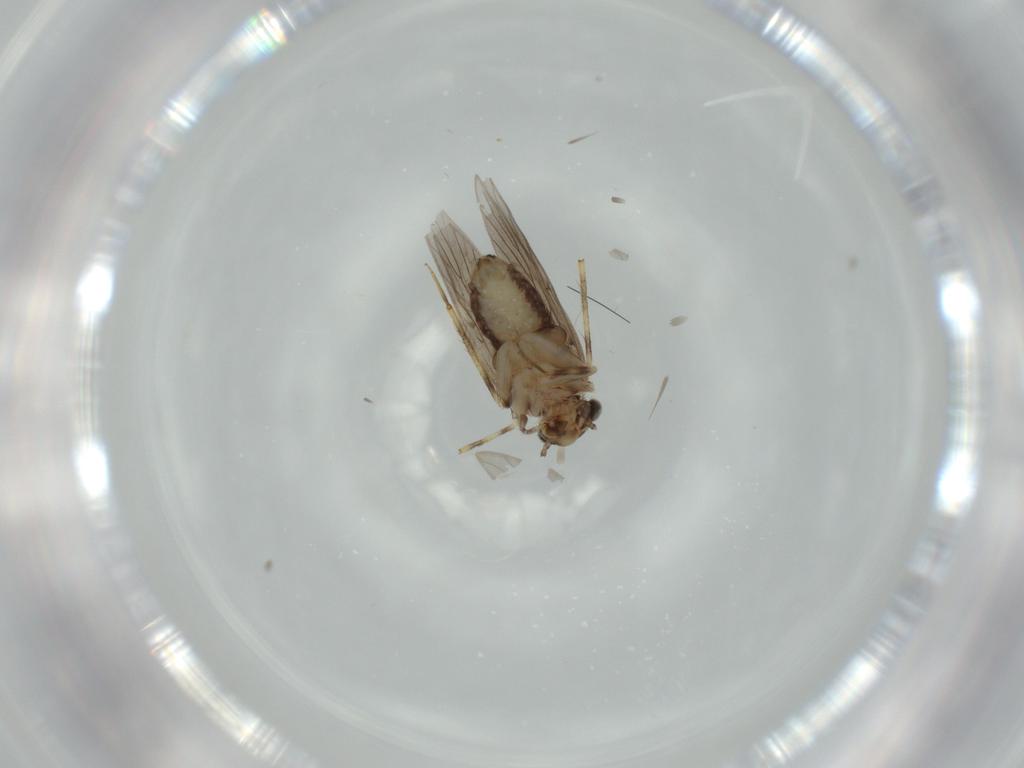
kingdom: Animalia
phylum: Arthropoda
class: Insecta
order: Psocodea
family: Lepidopsocidae
